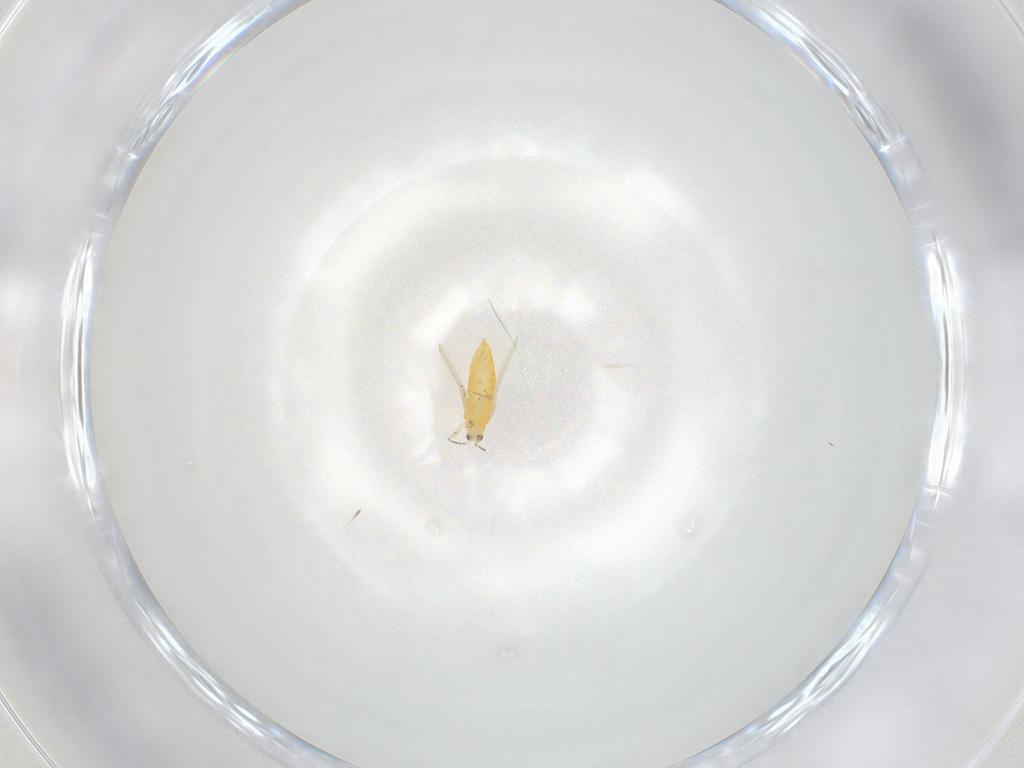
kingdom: Animalia
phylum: Arthropoda
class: Insecta
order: Thysanoptera
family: Thripidae
